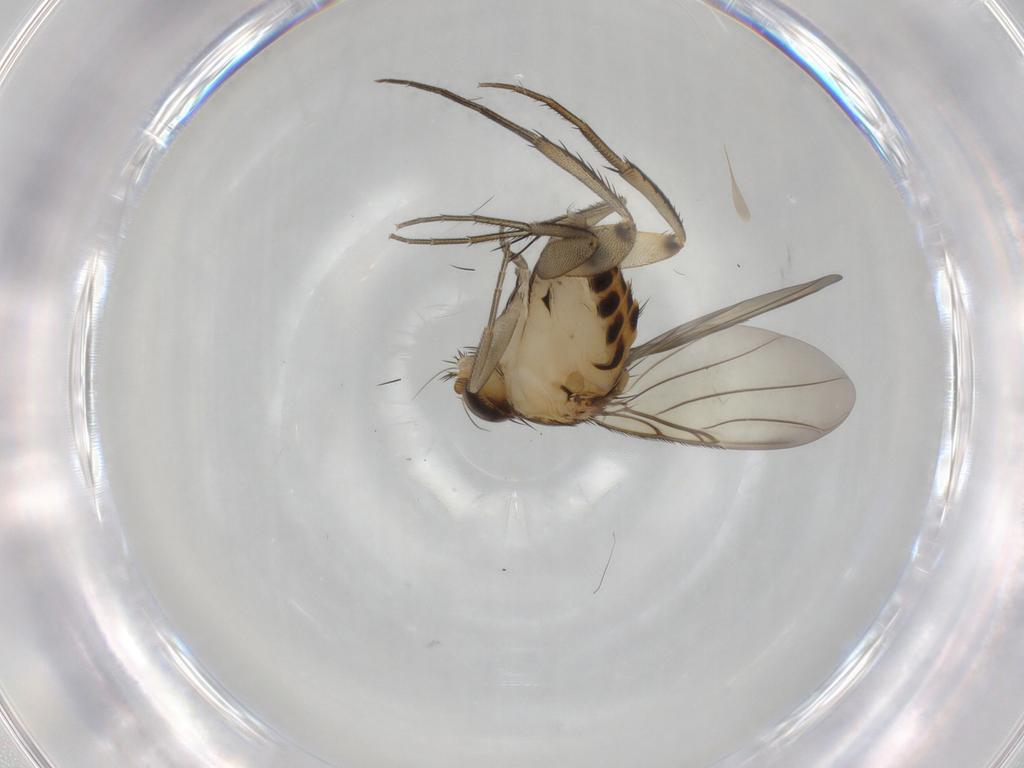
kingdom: Animalia
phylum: Arthropoda
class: Insecta
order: Diptera
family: Phoridae
